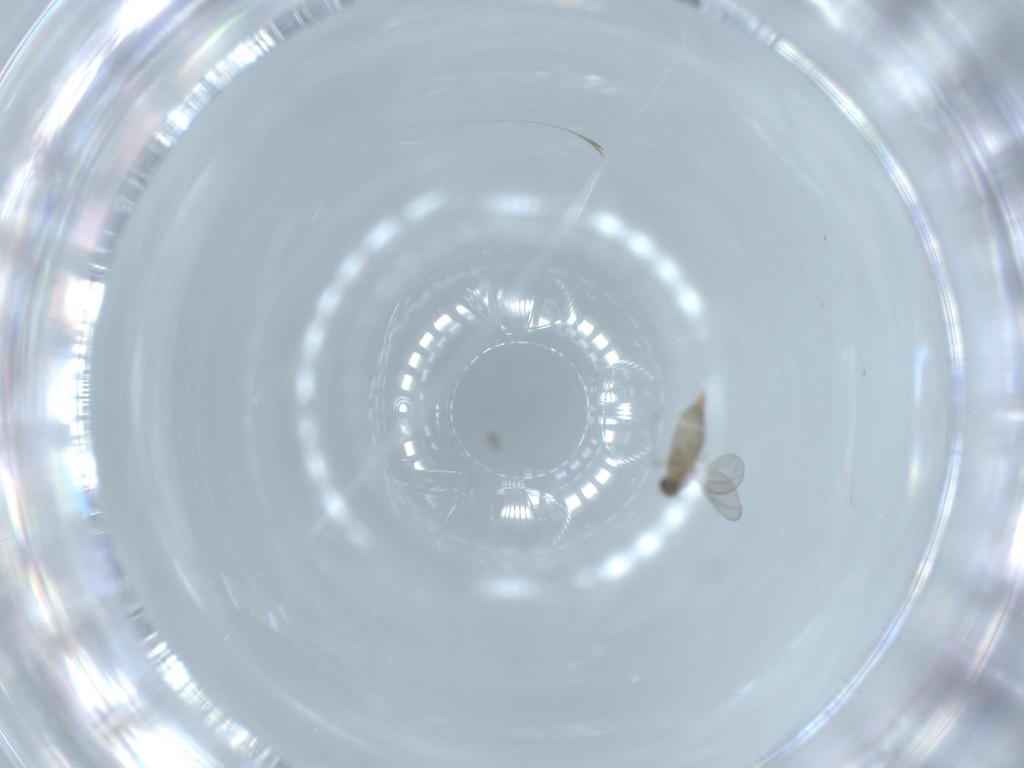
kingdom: Animalia
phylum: Arthropoda
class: Insecta
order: Diptera
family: Cecidomyiidae
